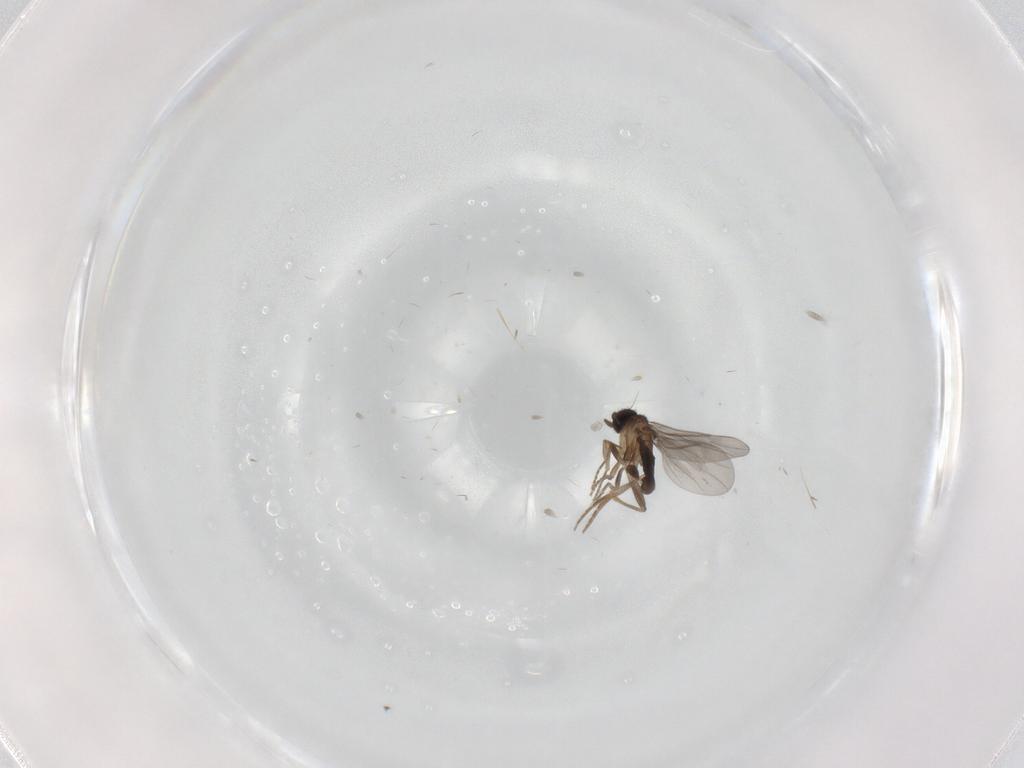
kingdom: Animalia
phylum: Arthropoda
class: Insecta
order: Diptera
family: Phoridae
